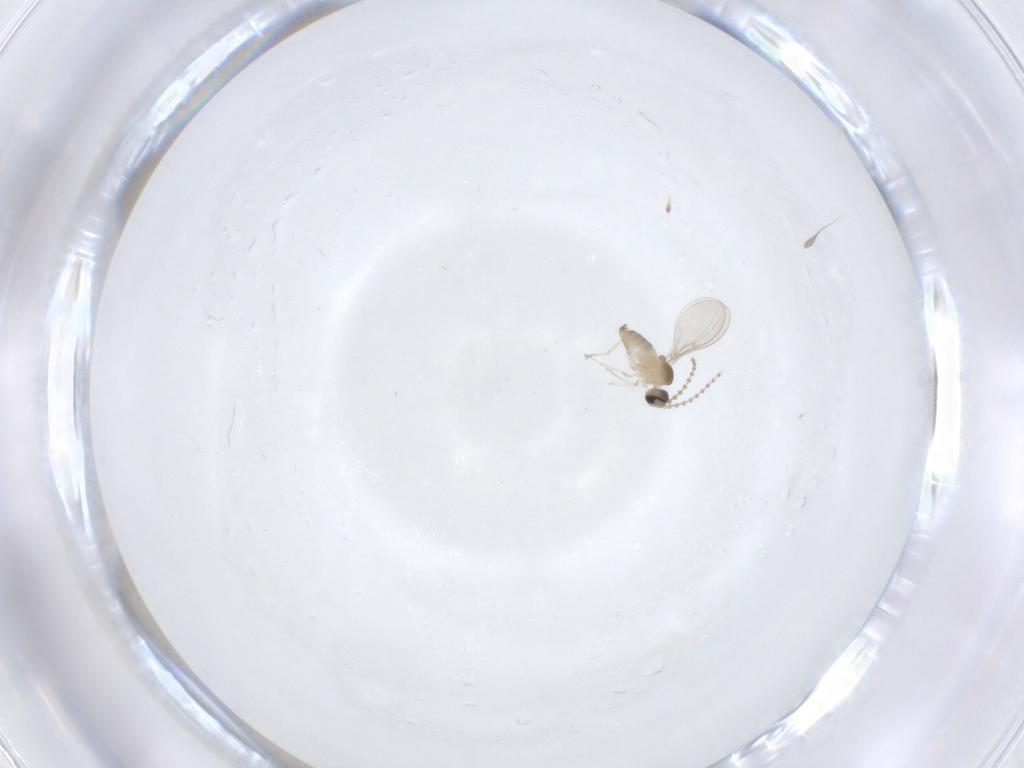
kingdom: Animalia
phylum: Arthropoda
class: Insecta
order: Diptera
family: Cecidomyiidae
